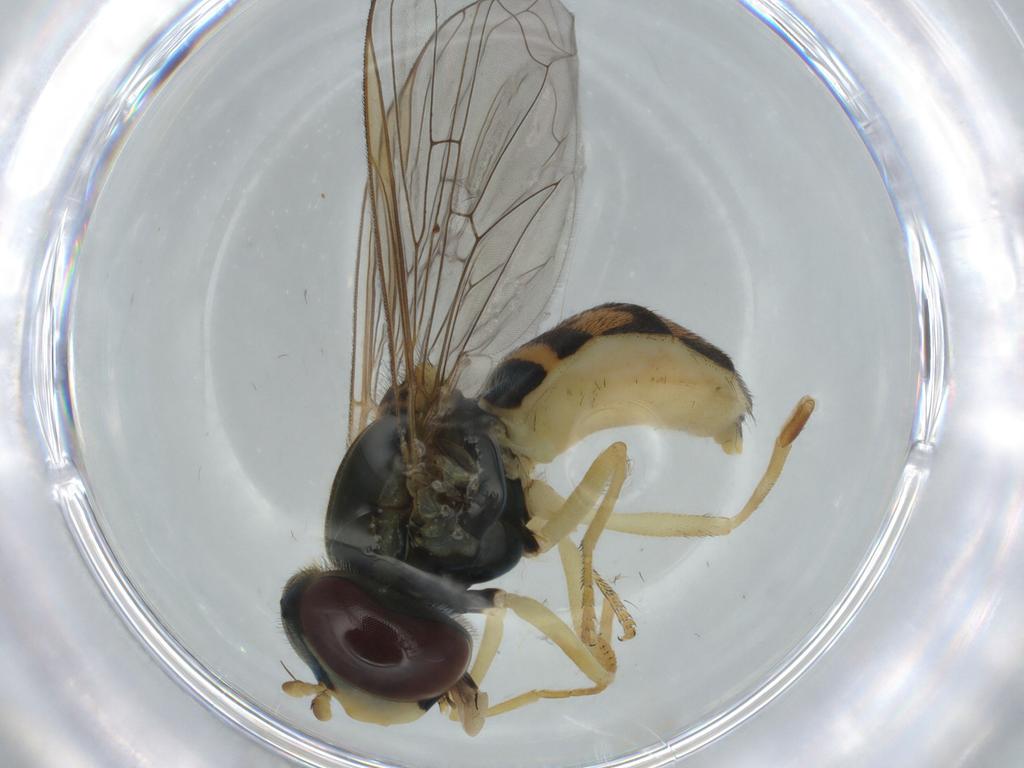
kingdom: Animalia
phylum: Arthropoda
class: Insecta
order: Diptera
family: Syrphidae
